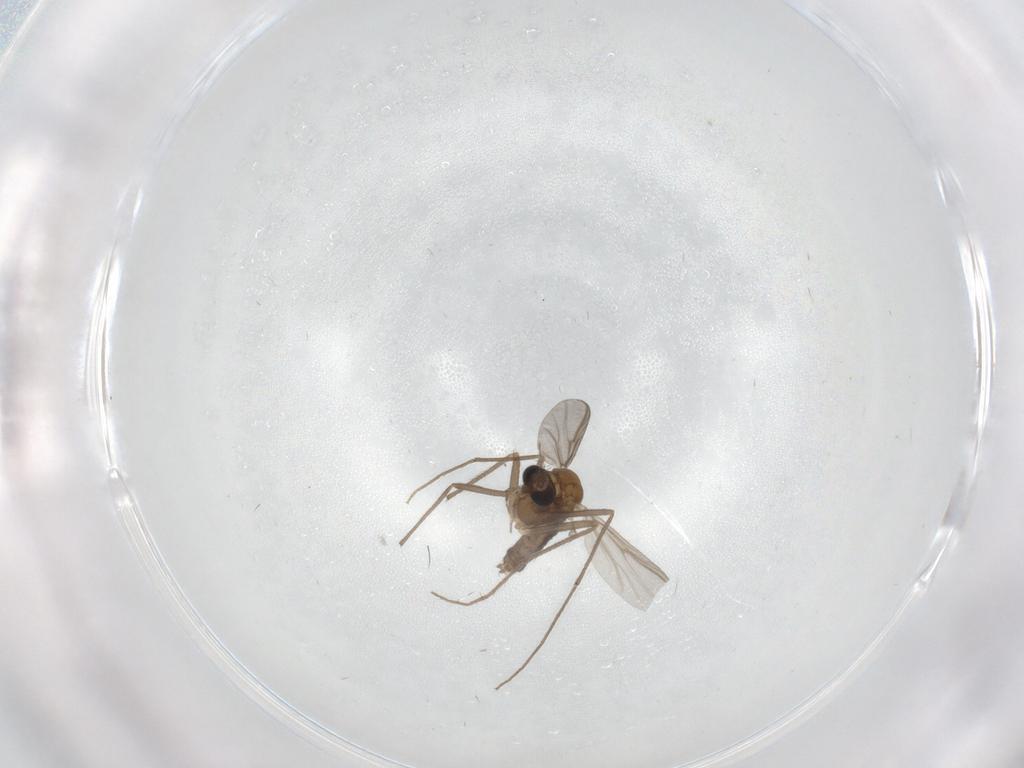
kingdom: Animalia
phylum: Arthropoda
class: Insecta
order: Diptera
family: Chironomidae
